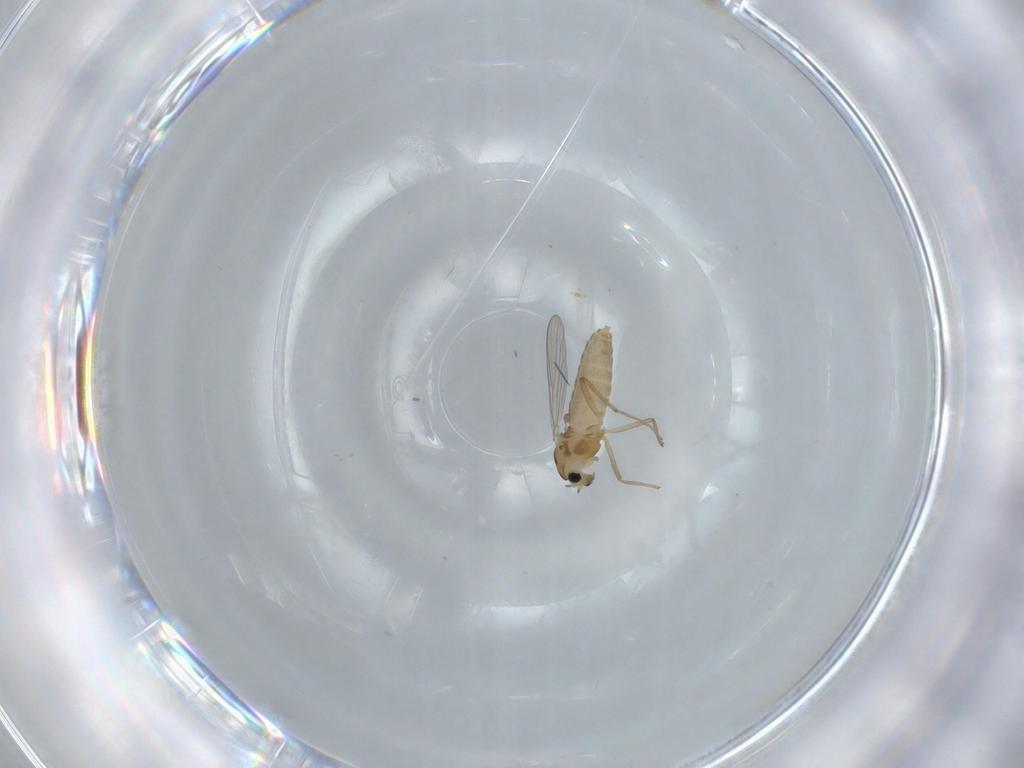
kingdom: Animalia
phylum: Arthropoda
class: Insecta
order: Diptera
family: Chironomidae
